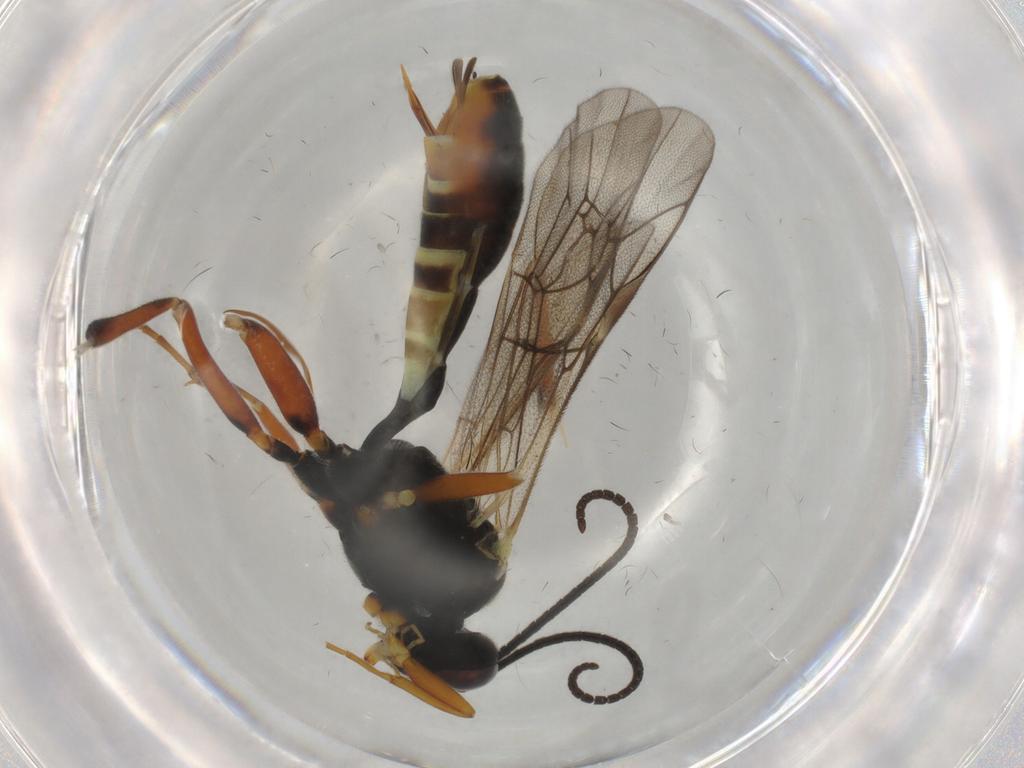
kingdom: Animalia
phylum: Arthropoda
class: Insecta
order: Hymenoptera
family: Ichneumonidae
